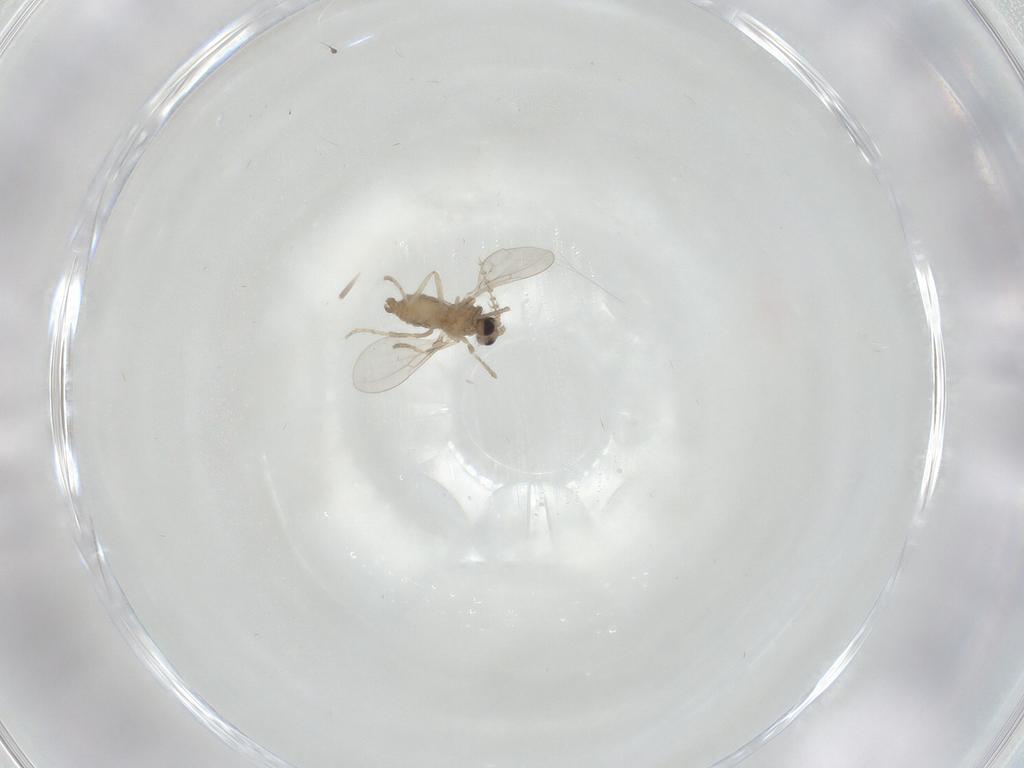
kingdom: Animalia
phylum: Arthropoda
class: Insecta
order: Diptera
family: Cecidomyiidae
